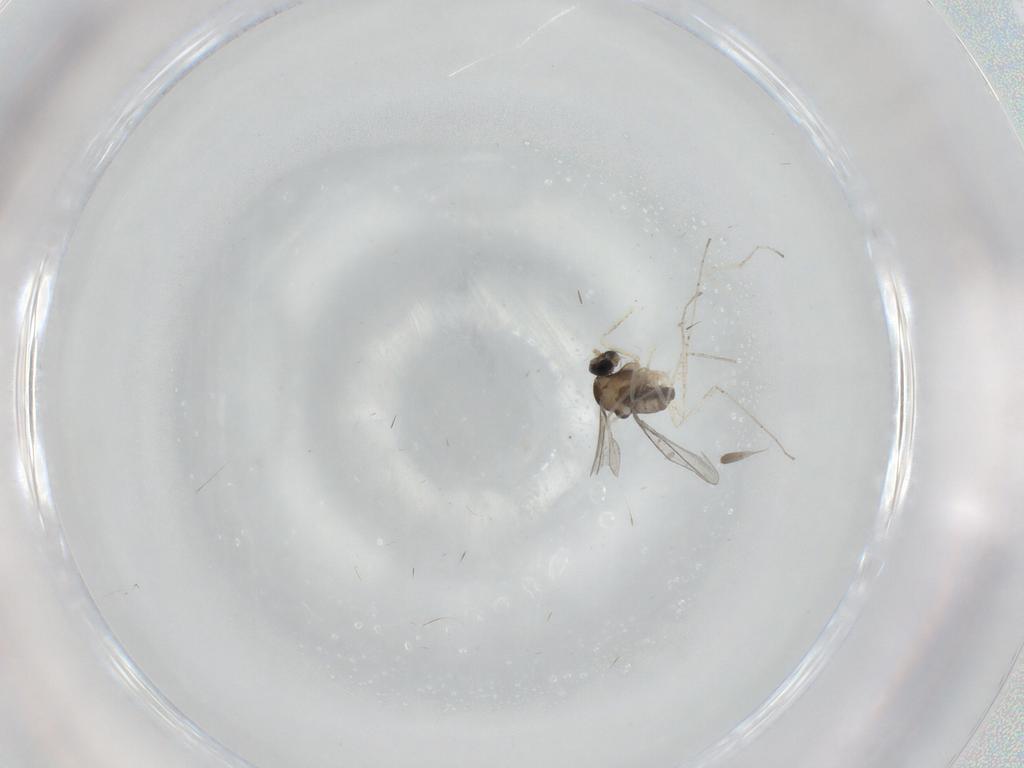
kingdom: Animalia
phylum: Arthropoda
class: Insecta
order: Diptera
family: Cecidomyiidae
